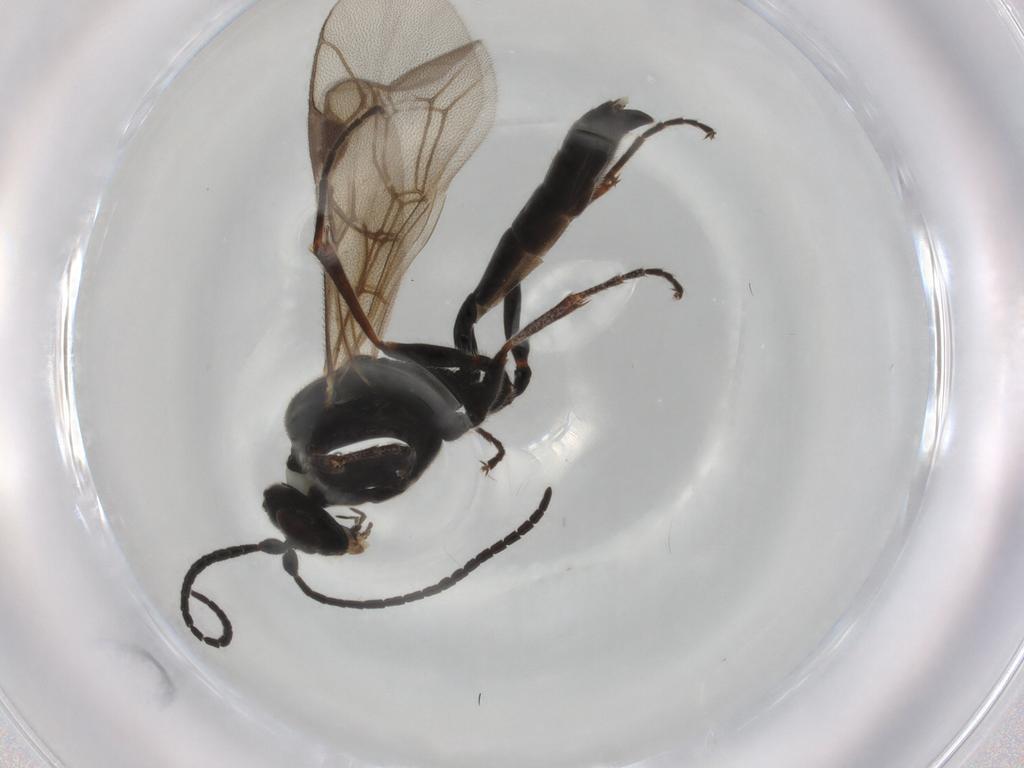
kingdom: Animalia
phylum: Arthropoda
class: Insecta
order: Hymenoptera
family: Ichneumonidae
